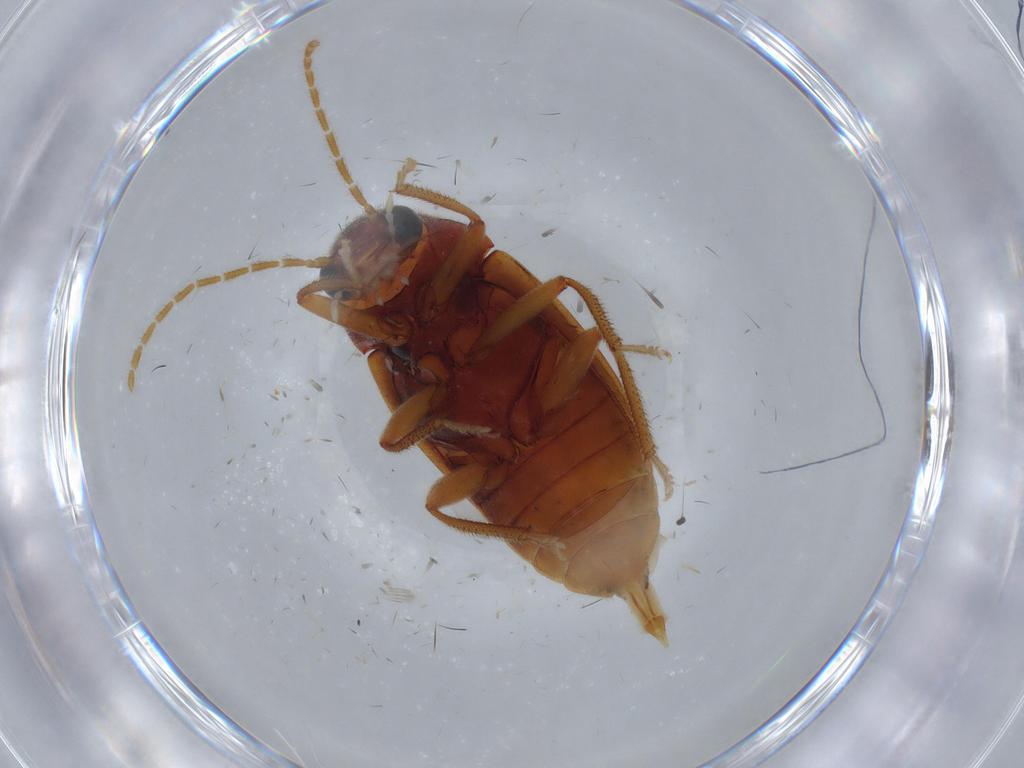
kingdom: Animalia
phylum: Arthropoda
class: Insecta
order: Coleoptera
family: Ptilodactylidae
